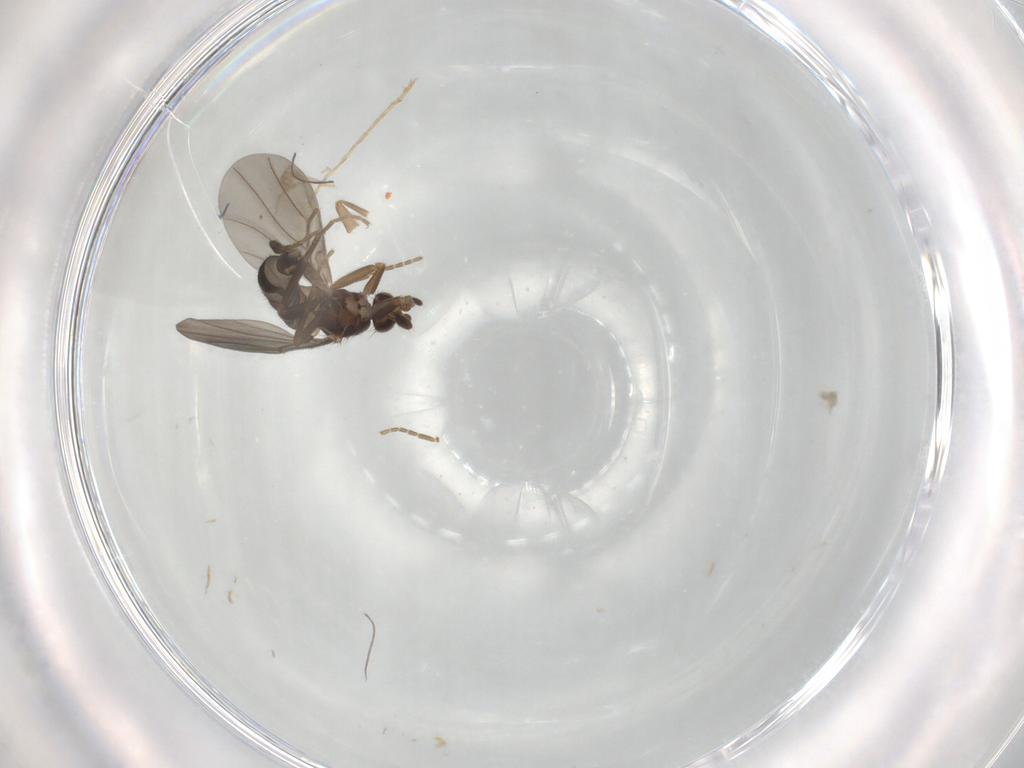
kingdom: Animalia
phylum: Arthropoda
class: Insecta
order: Diptera
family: Chironomidae
